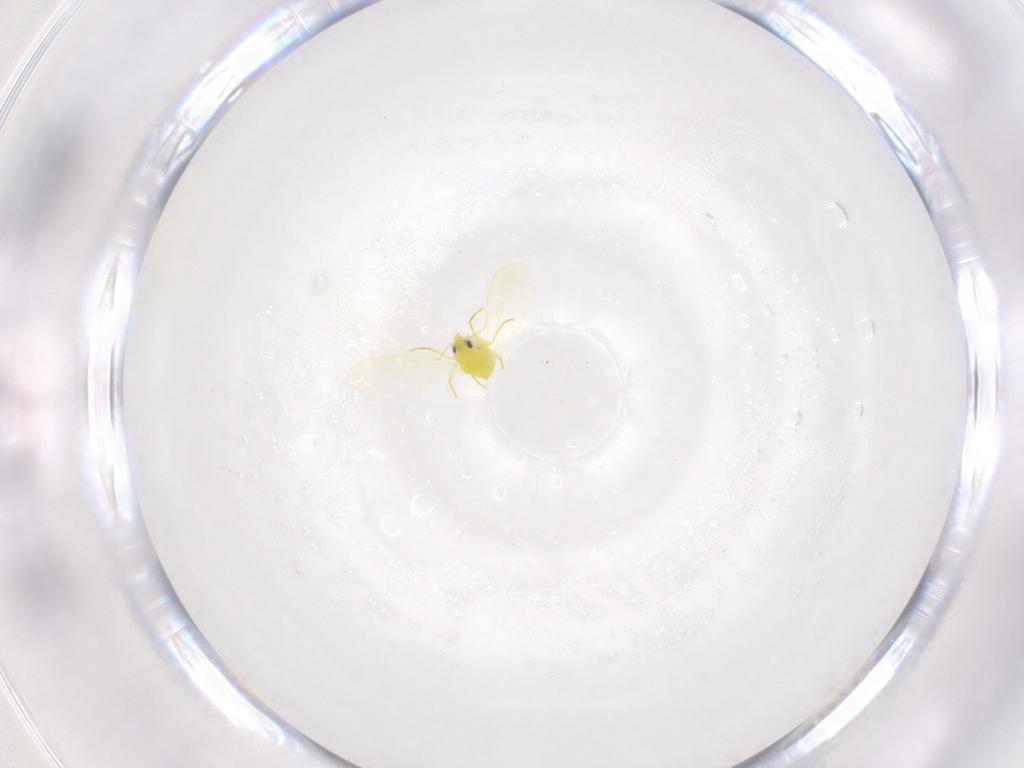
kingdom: Animalia
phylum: Arthropoda
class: Insecta
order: Hemiptera
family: Aleyrodidae
